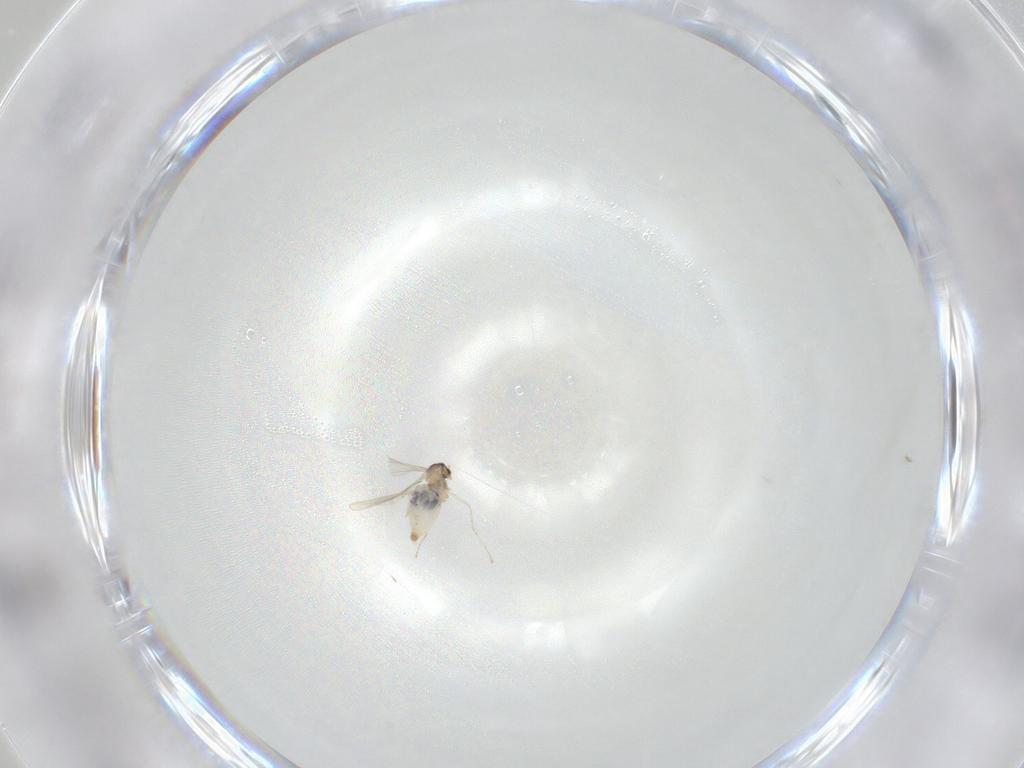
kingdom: Animalia
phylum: Arthropoda
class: Insecta
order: Diptera
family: Cecidomyiidae
